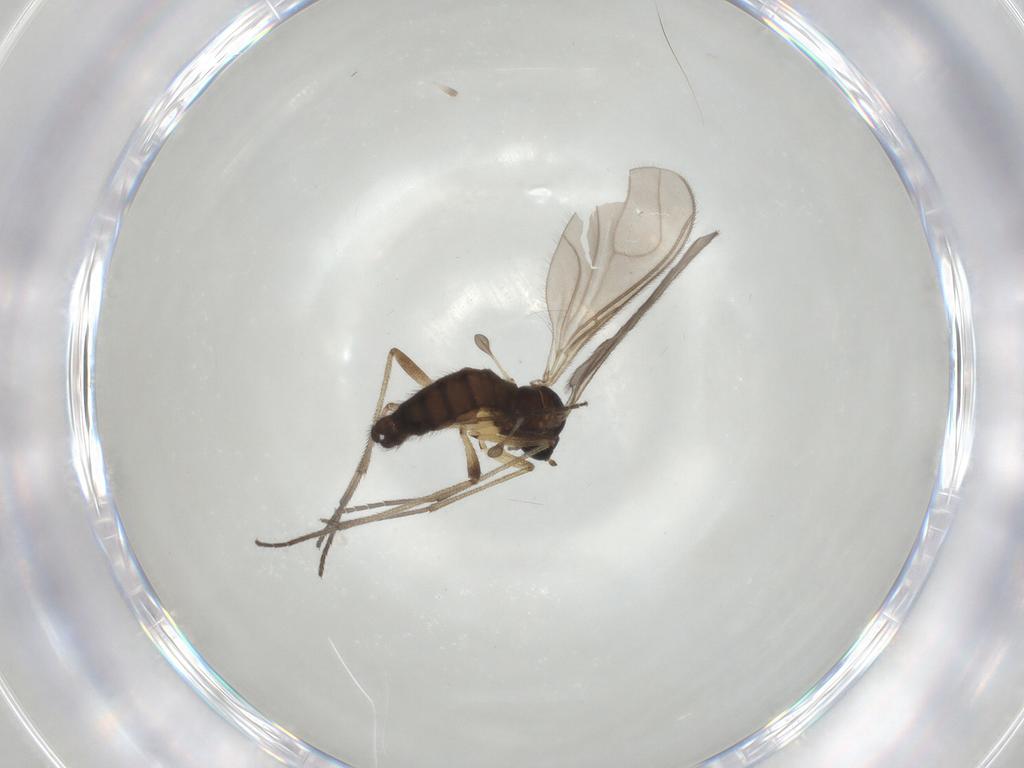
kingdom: Animalia
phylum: Arthropoda
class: Insecta
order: Diptera
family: Sciaridae
